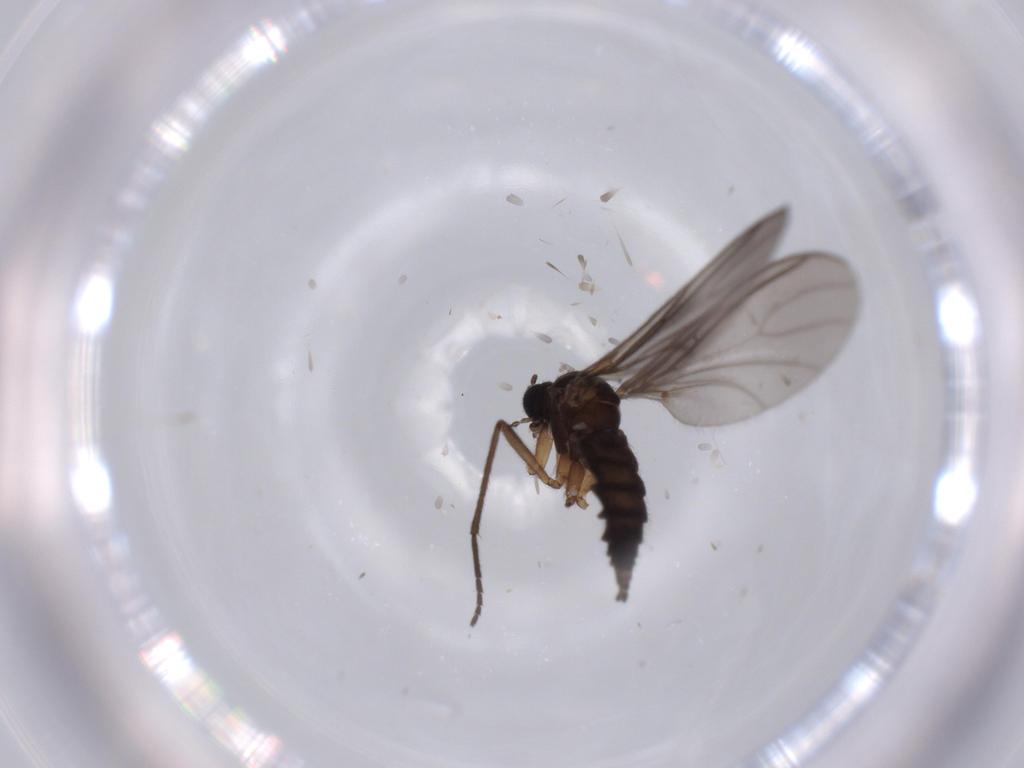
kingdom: Animalia
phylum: Arthropoda
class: Insecta
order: Diptera
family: Sciaridae
